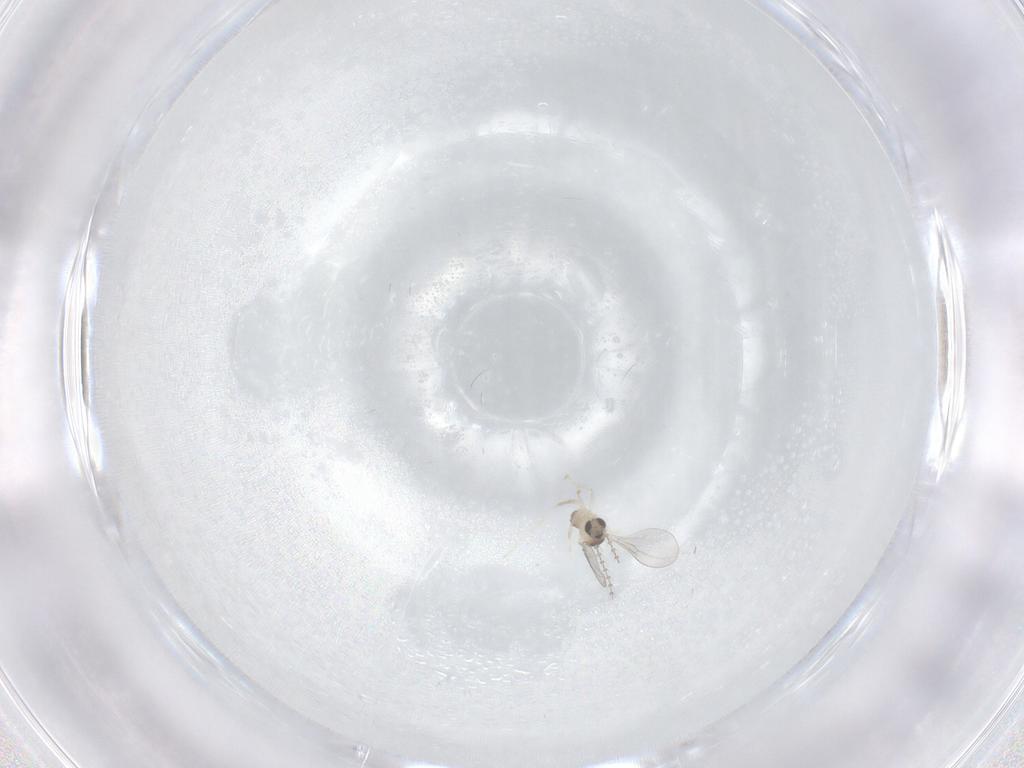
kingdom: Animalia
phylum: Arthropoda
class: Insecta
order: Diptera
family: Cecidomyiidae
